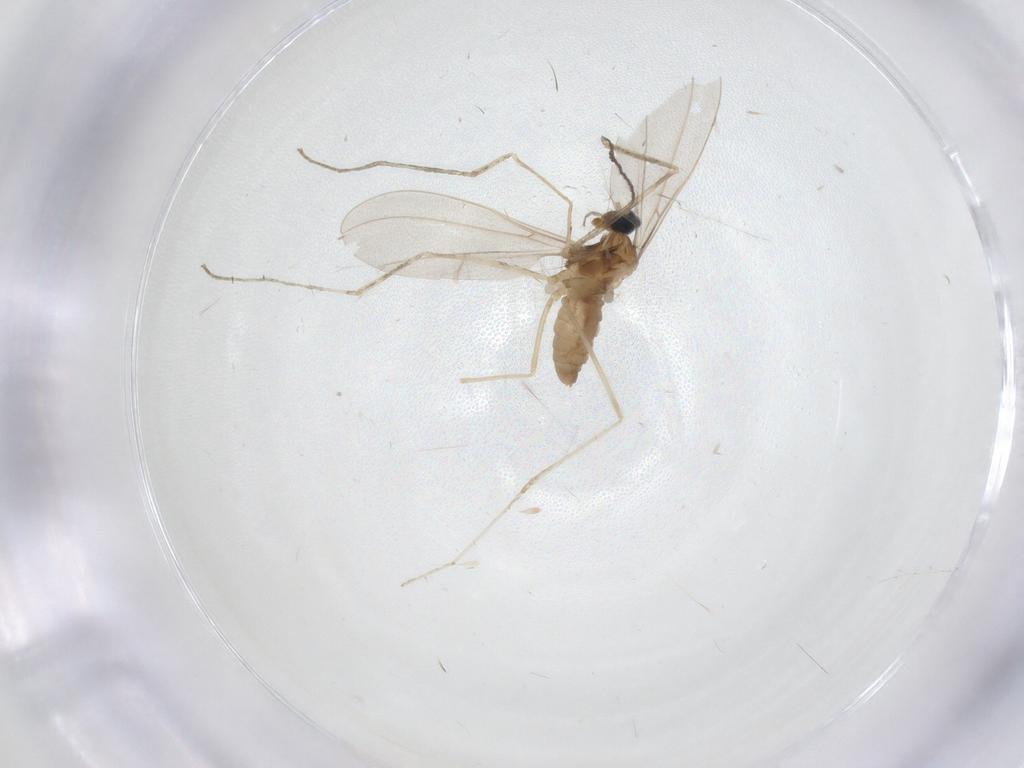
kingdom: Animalia
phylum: Arthropoda
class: Insecta
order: Diptera
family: Cecidomyiidae
